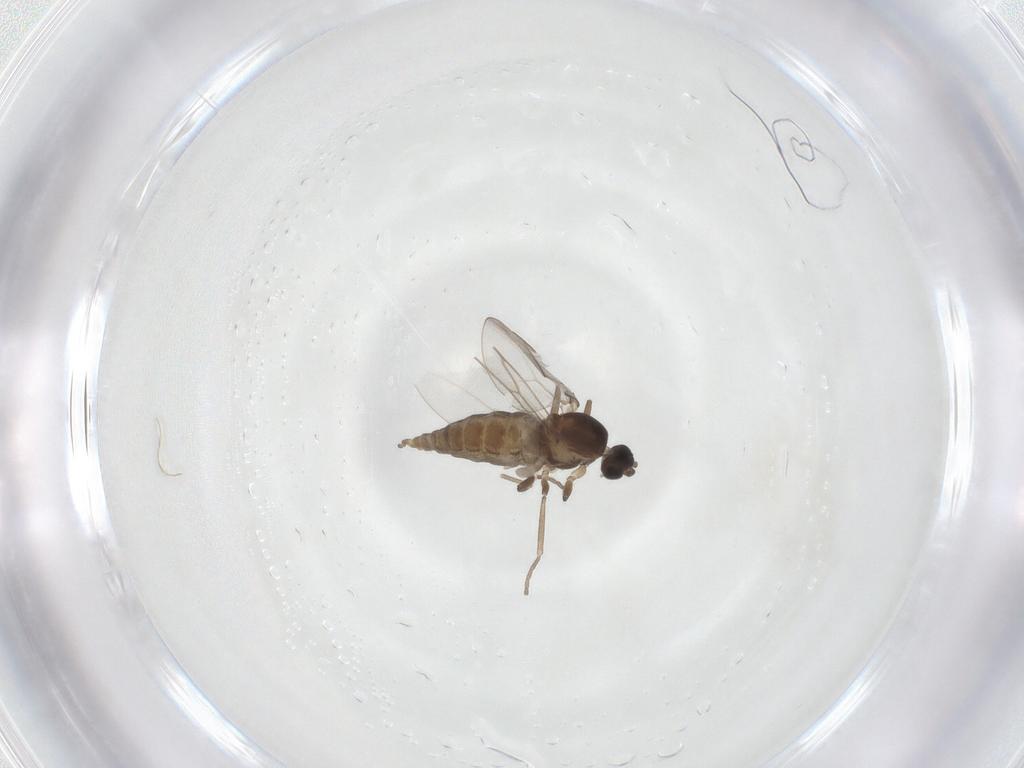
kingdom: Animalia
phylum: Arthropoda
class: Insecta
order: Diptera
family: Cecidomyiidae
